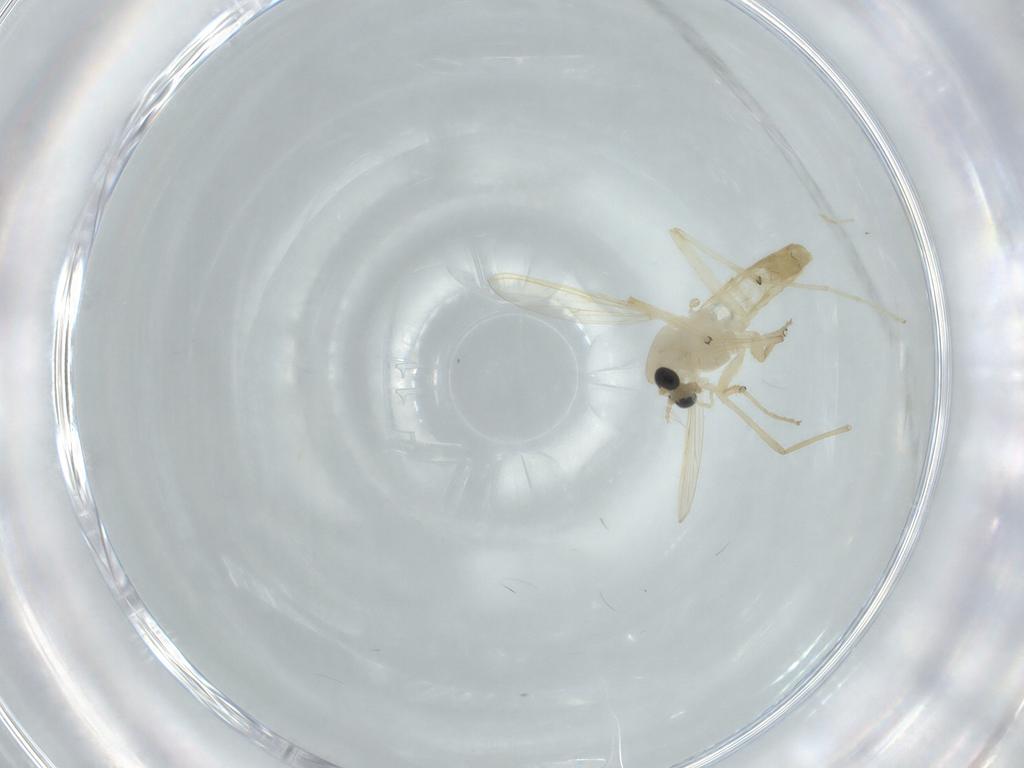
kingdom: Animalia
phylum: Arthropoda
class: Insecta
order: Diptera
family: Chironomidae
